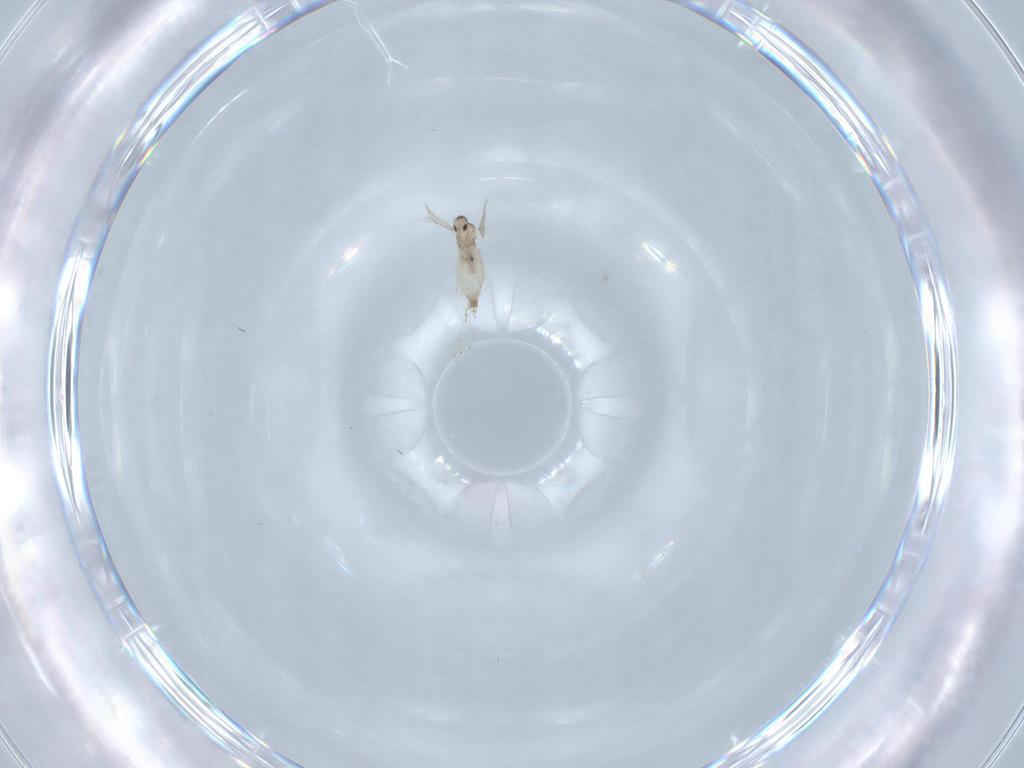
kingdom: Animalia
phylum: Arthropoda
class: Insecta
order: Diptera
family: Cecidomyiidae
